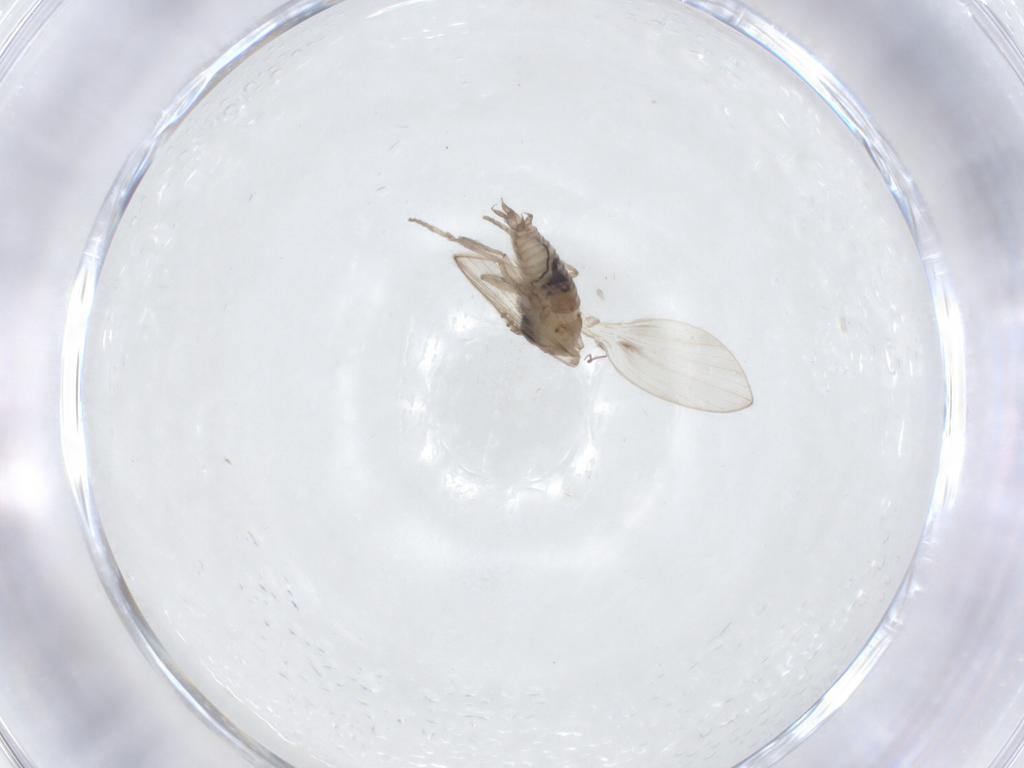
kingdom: Animalia
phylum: Arthropoda
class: Insecta
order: Diptera
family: Psychodidae
